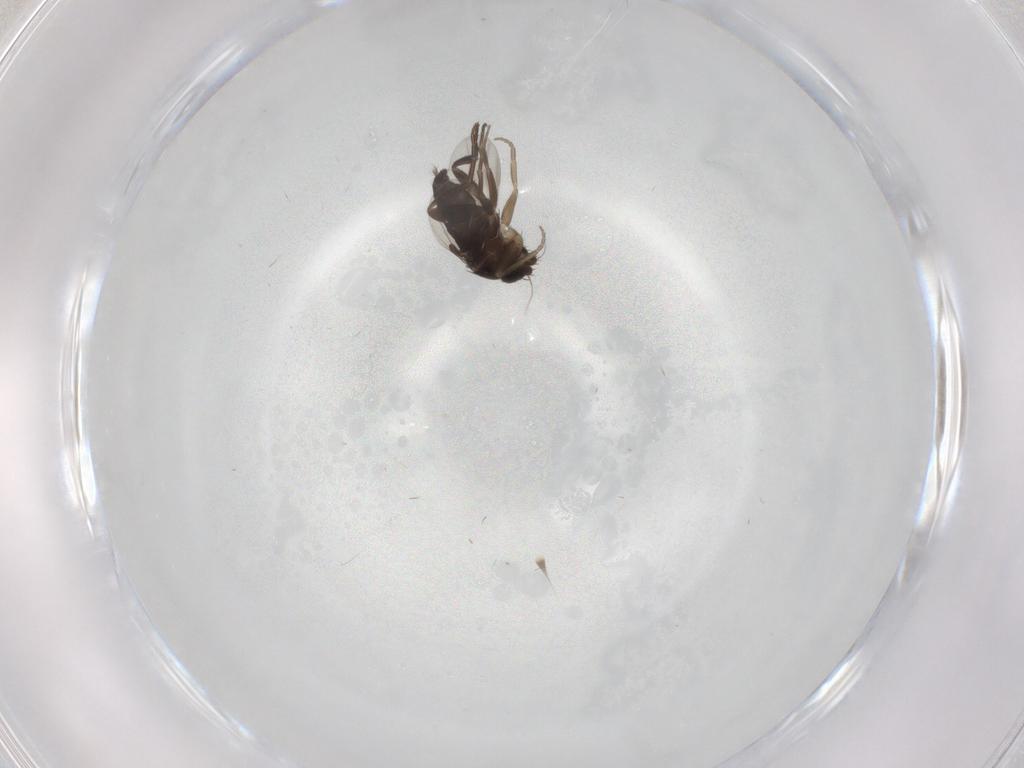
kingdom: Animalia
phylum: Arthropoda
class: Insecta
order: Diptera
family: Phoridae
